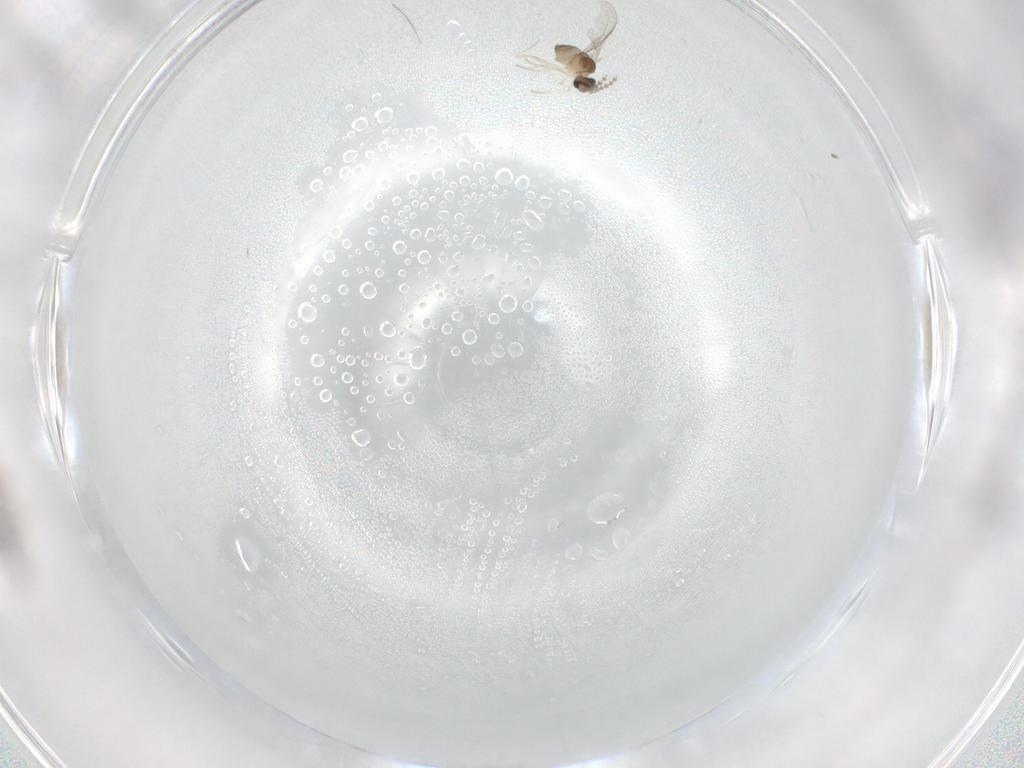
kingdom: Animalia
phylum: Arthropoda
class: Insecta
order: Diptera
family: Cecidomyiidae
